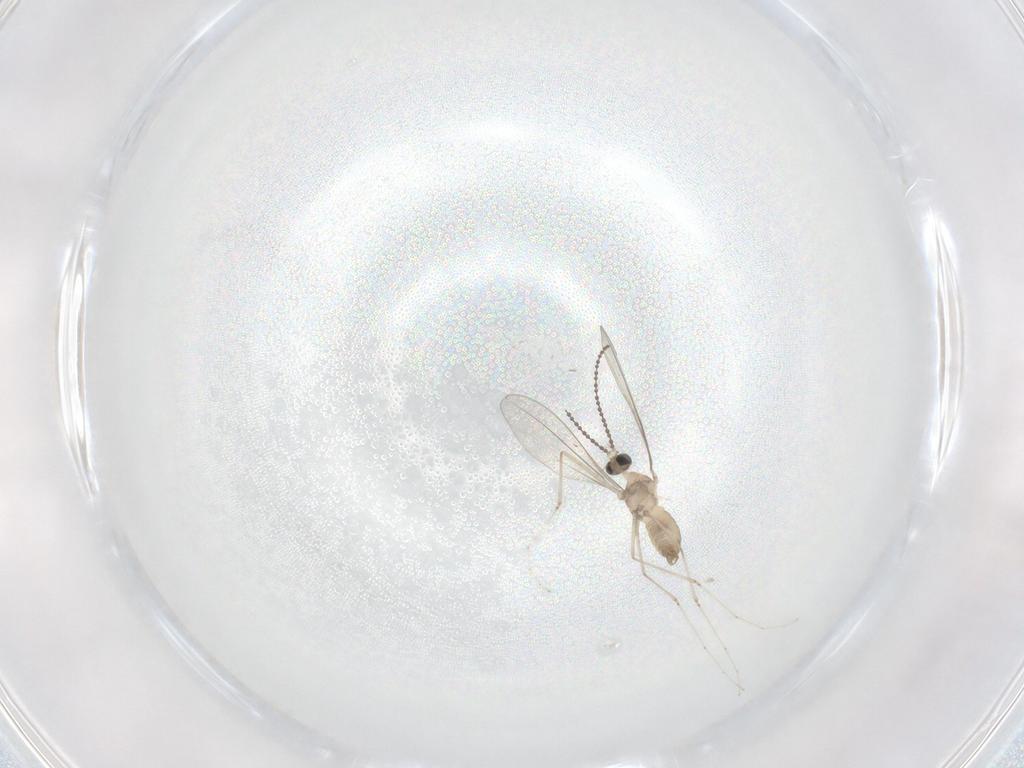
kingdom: Animalia
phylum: Arthropoda
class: Insecta
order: Diptera
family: Cecidomyiidae
